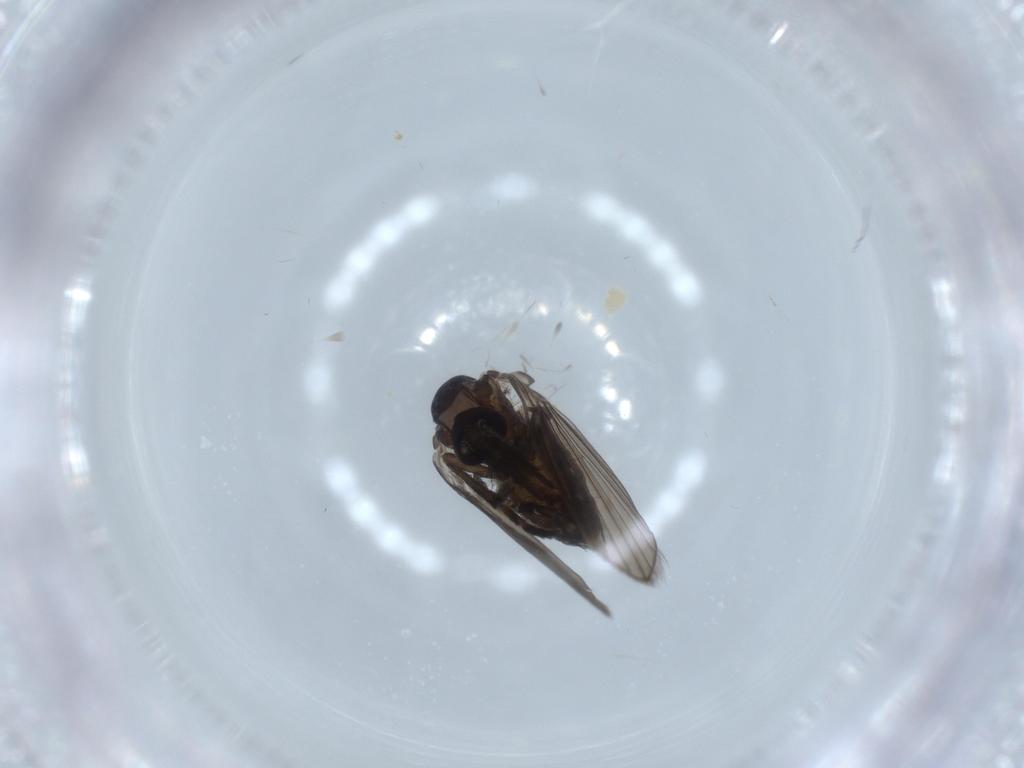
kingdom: Animalia
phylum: Arthropoda
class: Insecta
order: Diptera
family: Psychodidae
